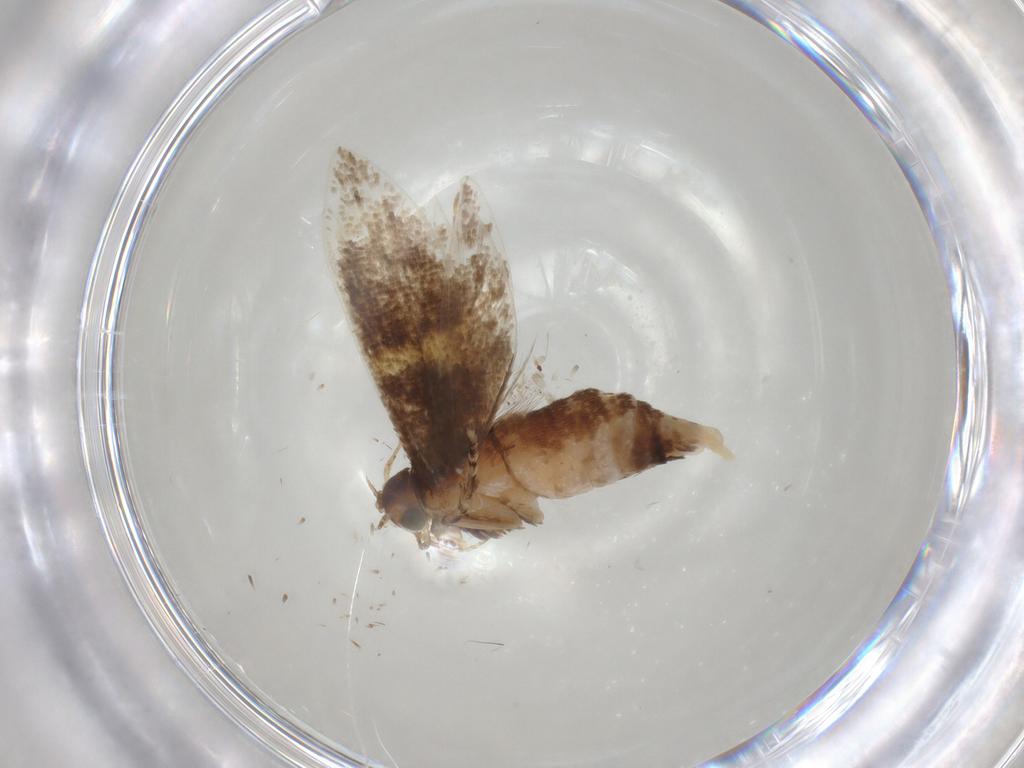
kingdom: Animalia
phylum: Arthropoda
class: Insecta
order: Lepidoptera
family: Oecophoridae
